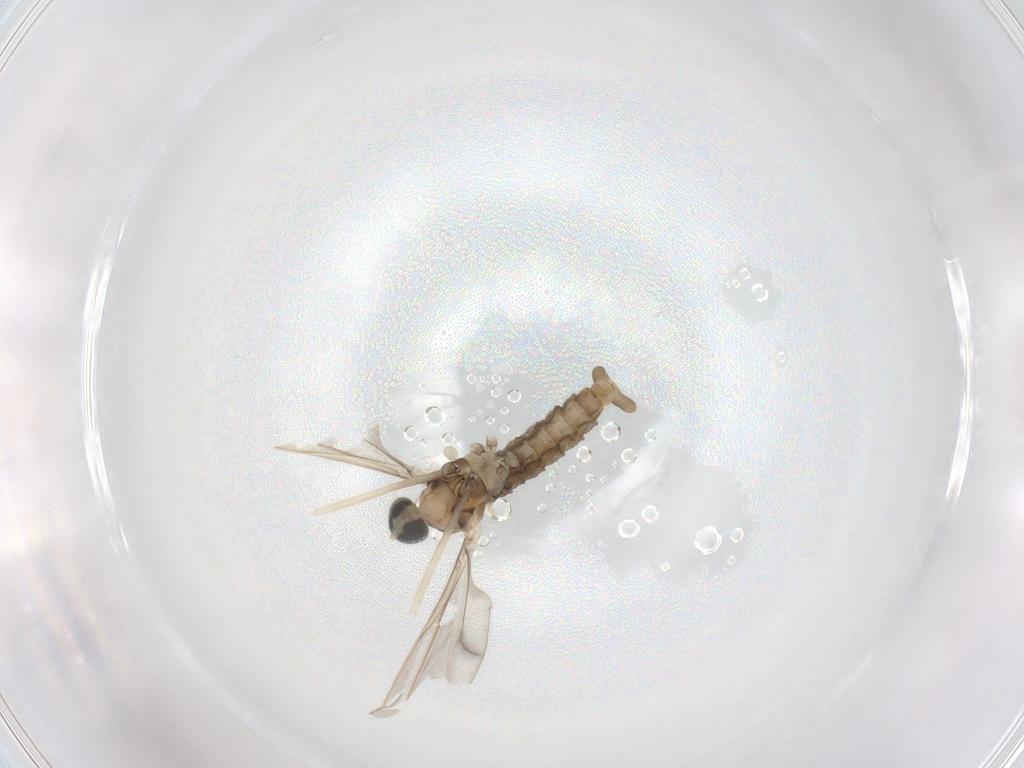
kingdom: Animalia
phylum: Arthropoda
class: Insecta
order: Diptera
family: Cecidomyiidae
